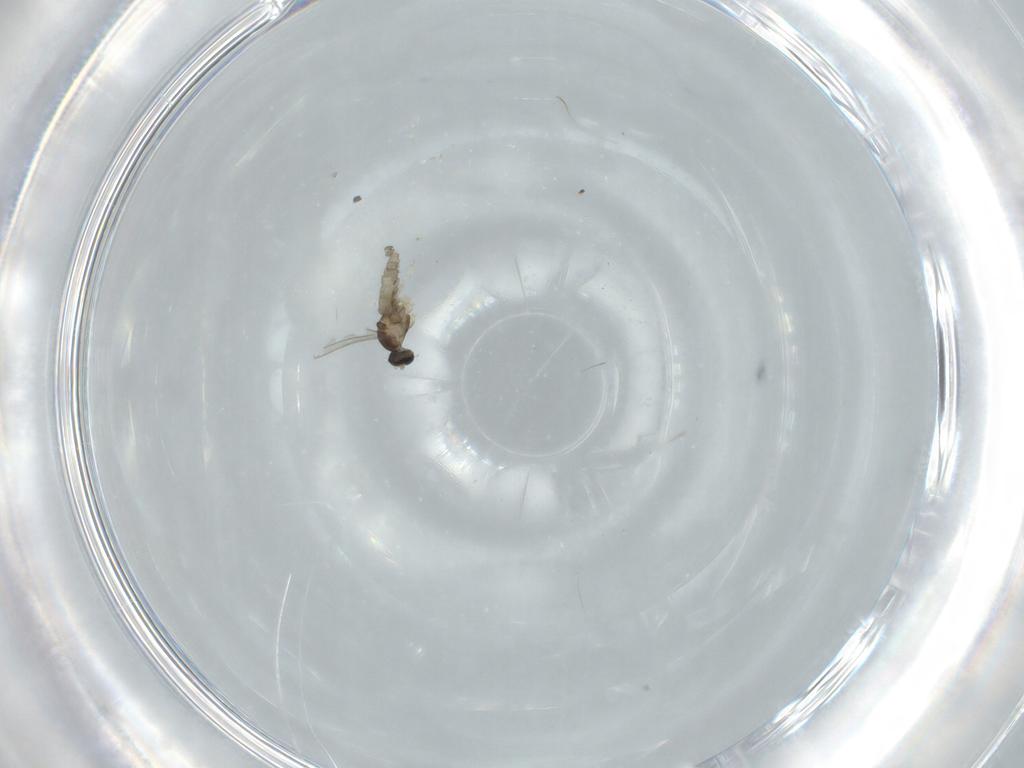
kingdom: Animalia
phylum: Arthropoda
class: Insecta
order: Diptera
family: Cecidomyiidae
